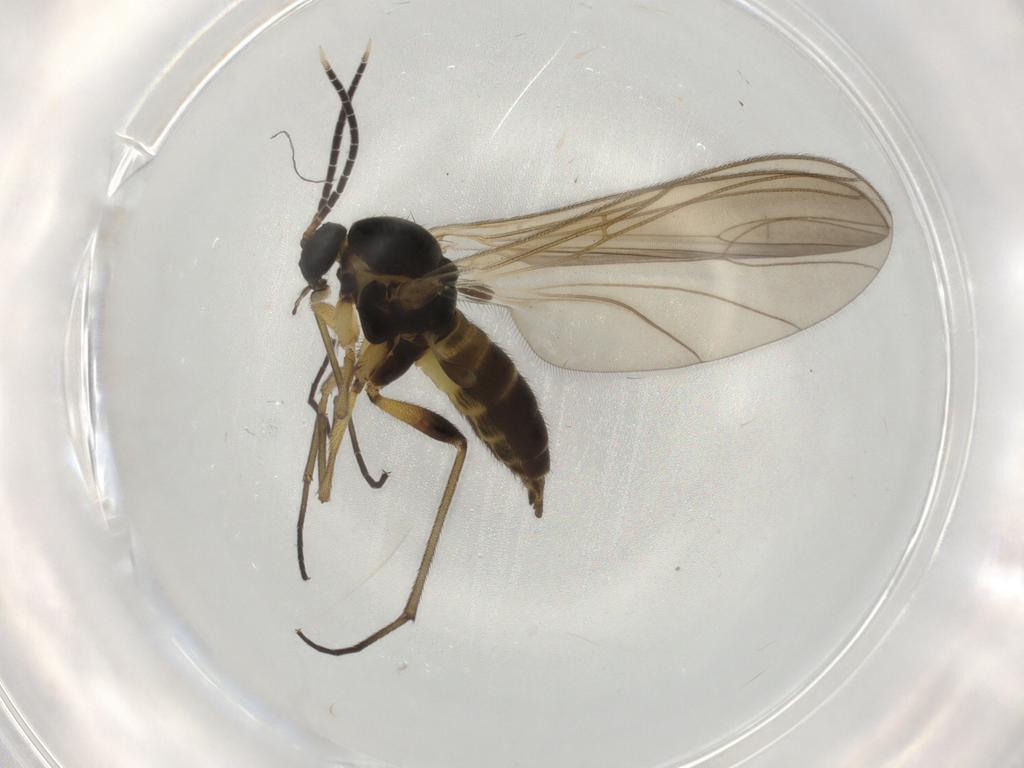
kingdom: Animalia
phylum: Arthropoda
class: Insecta
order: Diptera
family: Sciaridae
